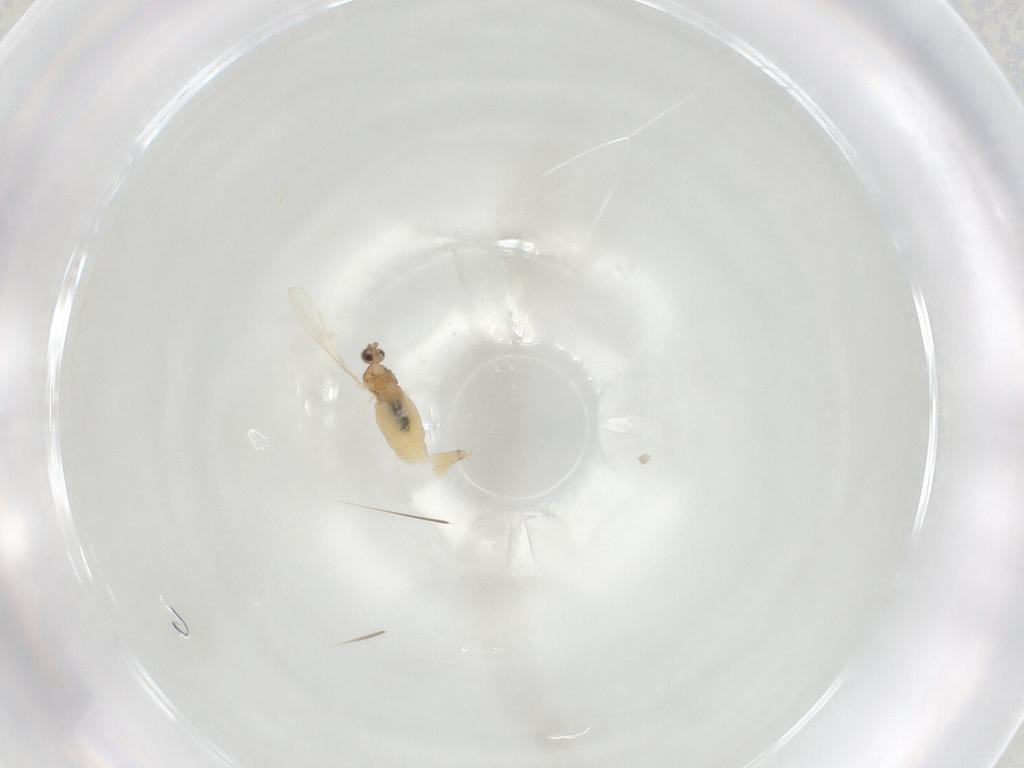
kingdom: Animalia
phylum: Arthropoda
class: Insecta
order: Diptera
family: Cecidomyiidae
